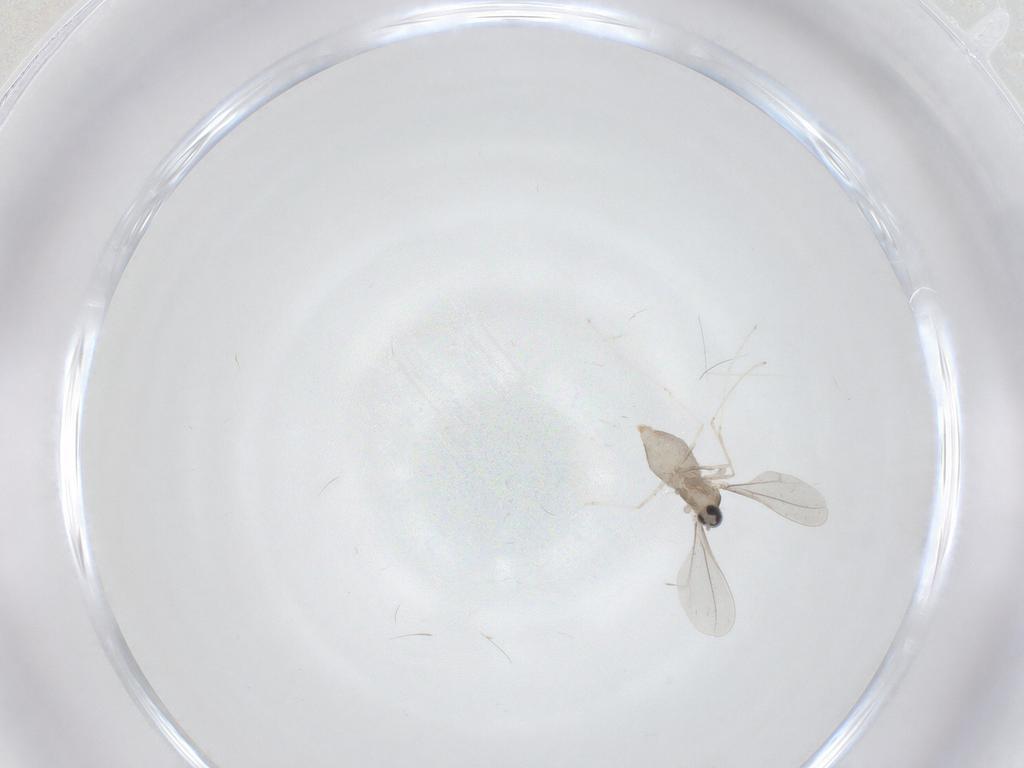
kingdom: Animalia
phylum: Arthropoda
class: Insecta
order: Diptera
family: Cecidomyiidae
